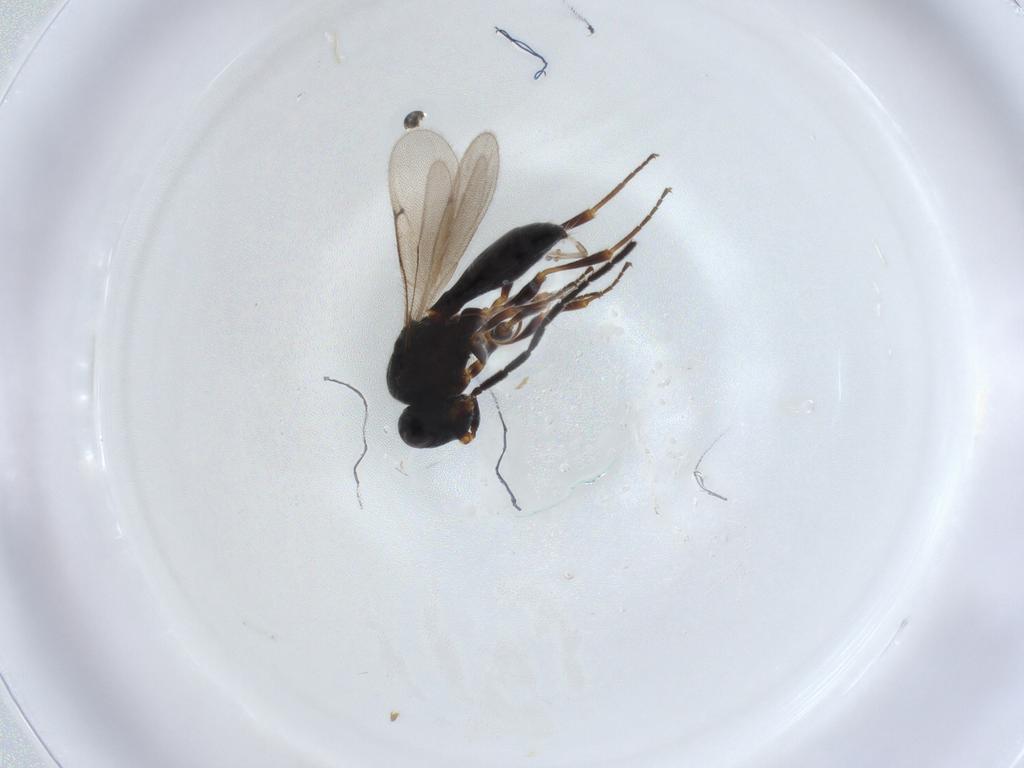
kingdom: Animalia
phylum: Arthropoda
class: Insecta
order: Hymenoptera
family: Scelionidae
